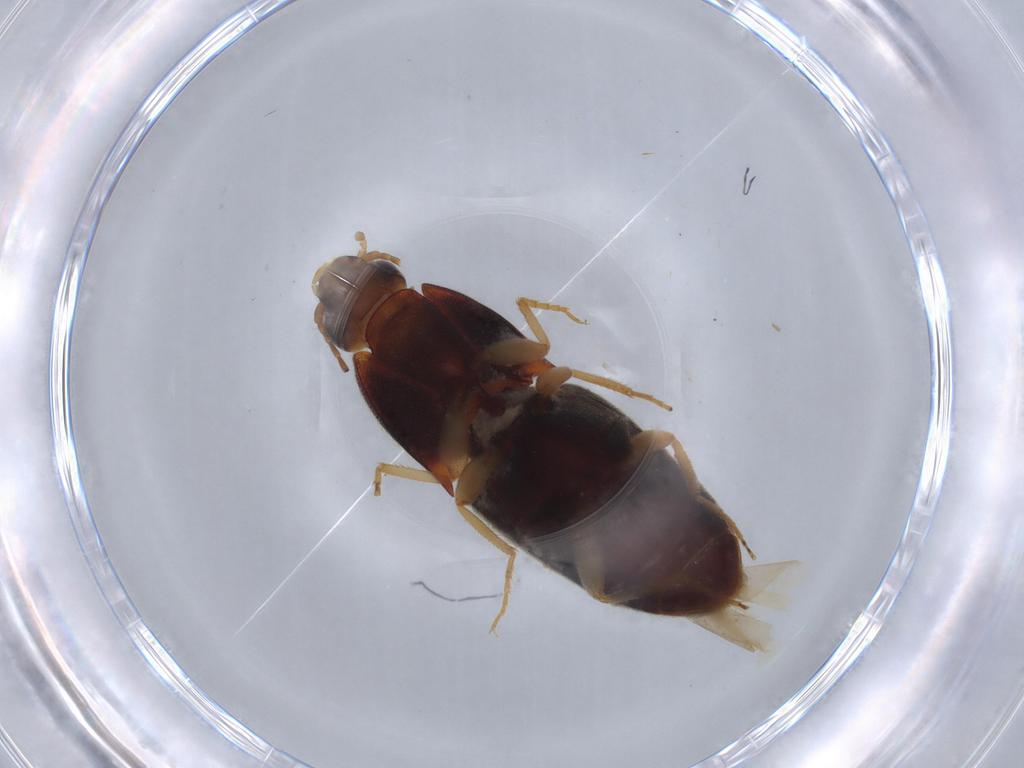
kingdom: Animalia
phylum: Arthropoda
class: Insecta
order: Coleoptera
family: Elateridae
